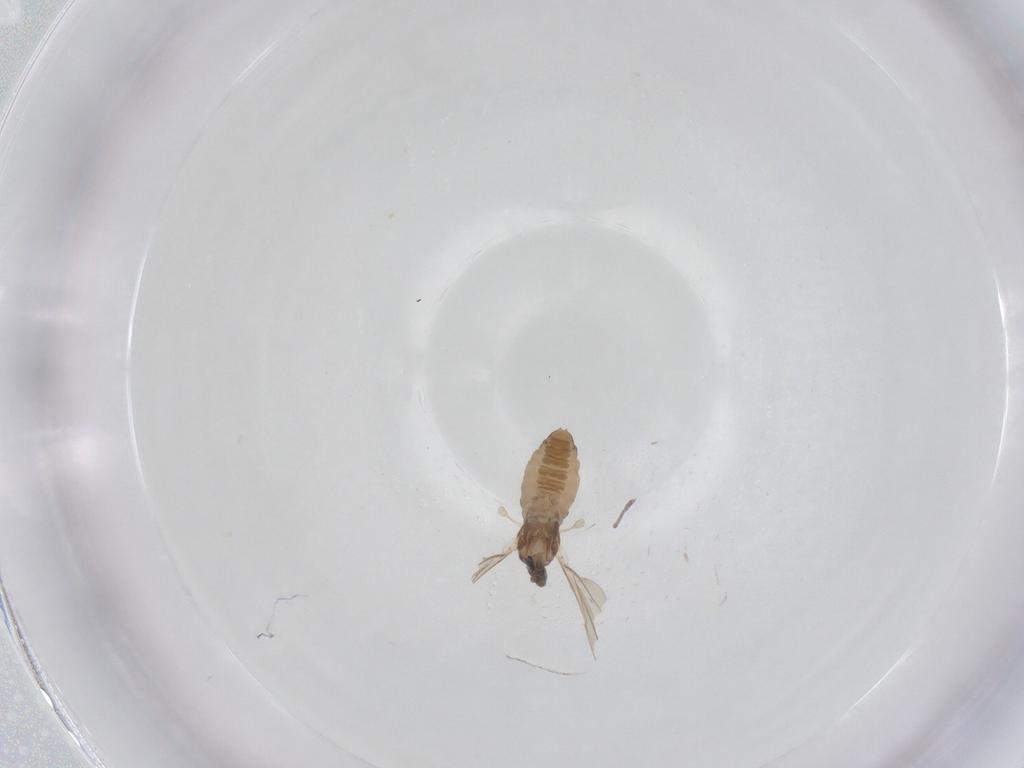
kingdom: Animalia
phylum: Arthropoda
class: Insecta
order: Diptera
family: Cecidomyiidae
